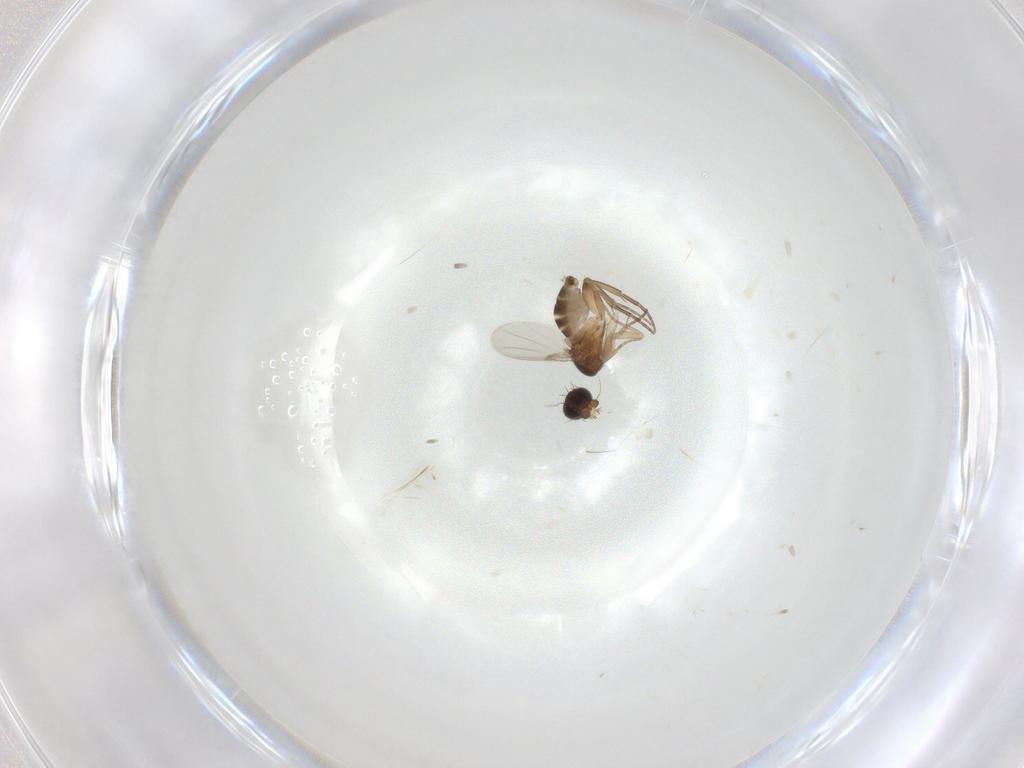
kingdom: Animalia
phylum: Arthropoda
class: Insecta
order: Diptera
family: Phoridae
